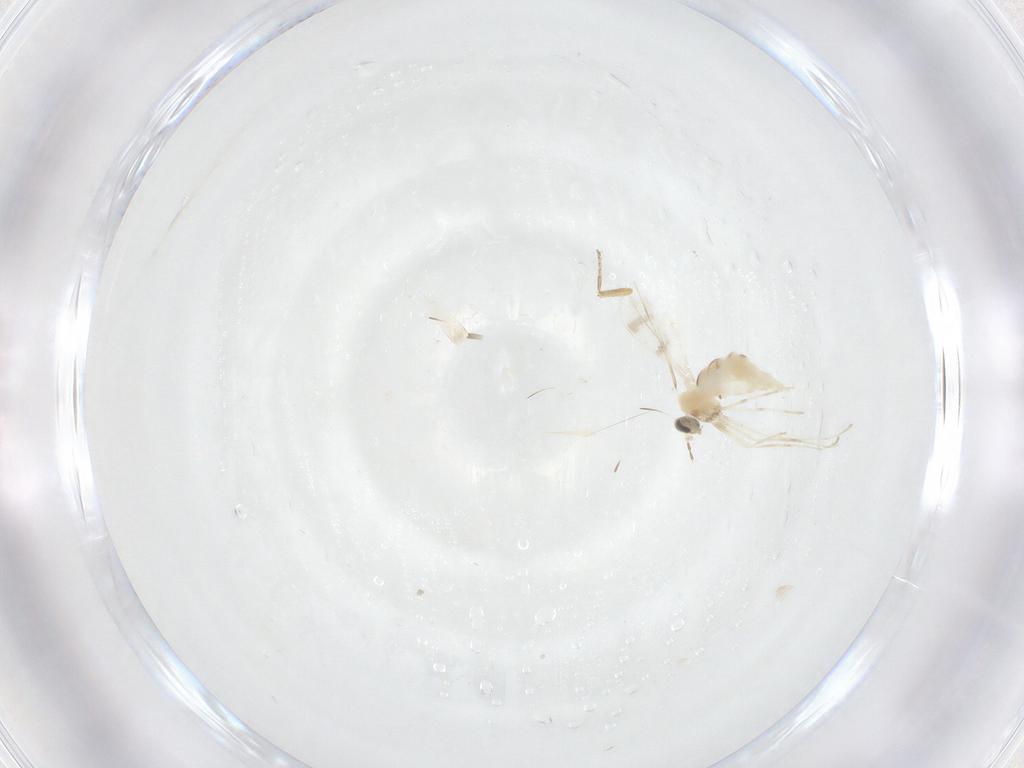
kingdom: Animalia
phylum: Arthropoda
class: Insecta
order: Diptera
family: Cecidomyiidae
